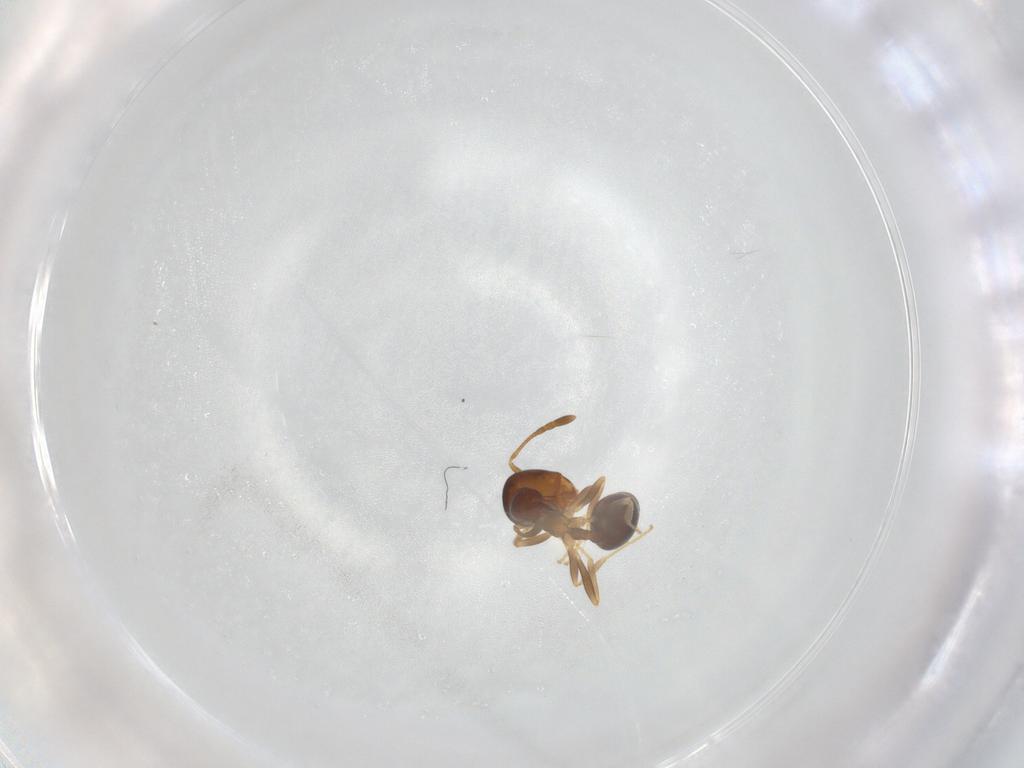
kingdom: Animalia
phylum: Arthropoda
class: Insecta
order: Hymenoptera
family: Formicidae
